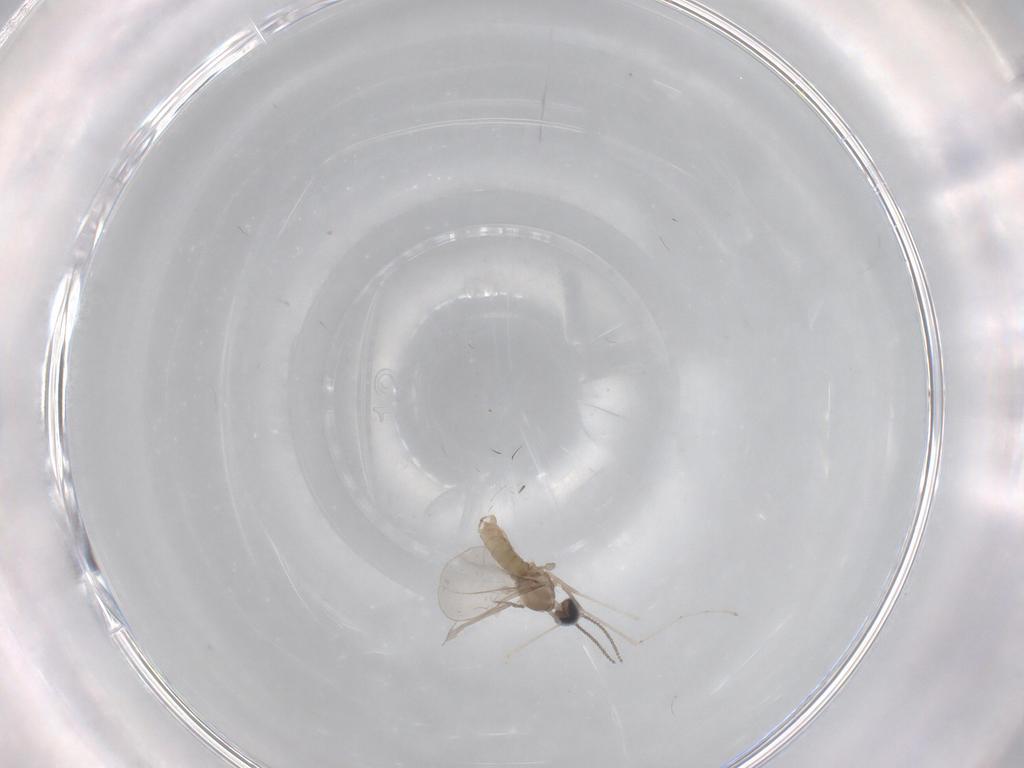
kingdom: Animalia
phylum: Arthropoda
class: Insecta
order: Diptera
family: Cecidomyiidae
